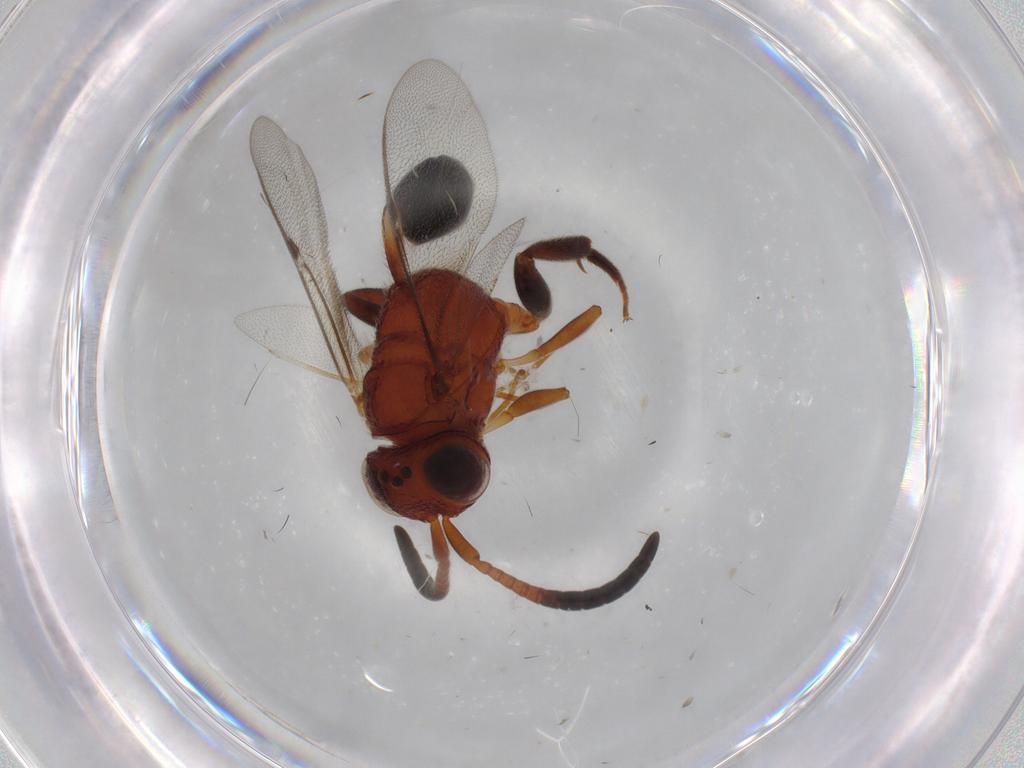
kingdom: Animalia
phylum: Arthropoda
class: Insecta
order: Hymenoptera
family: Evaniidae
